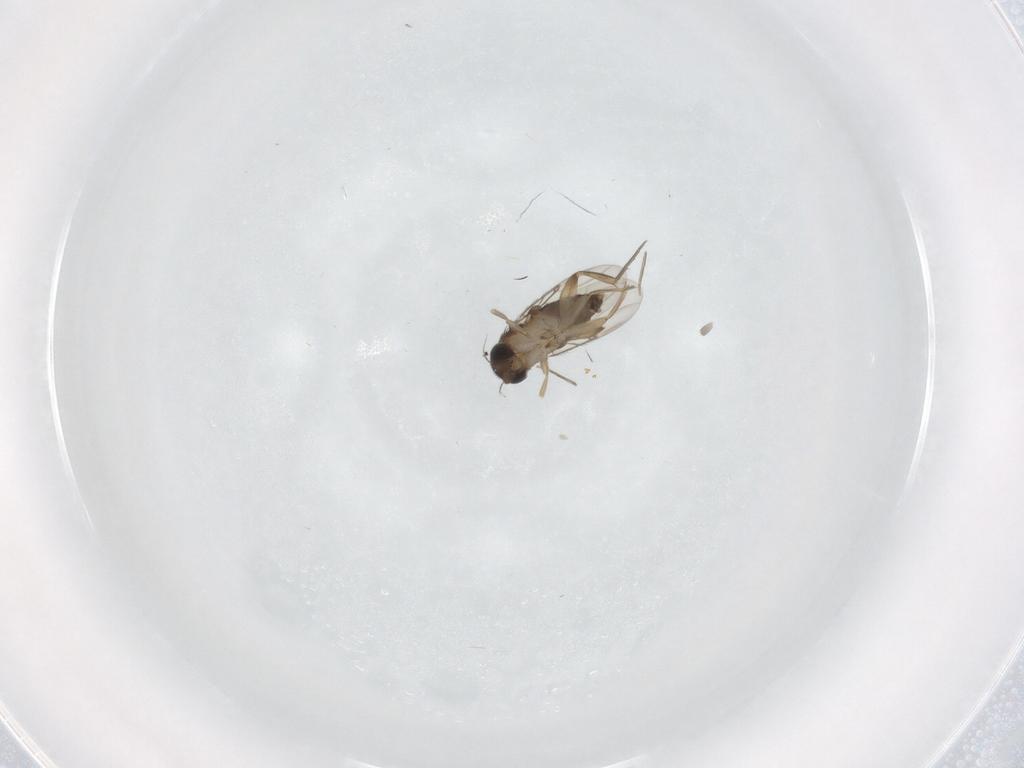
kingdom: Animalia
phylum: Arthropoda
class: Insecta
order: Diptera
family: Phoridae
